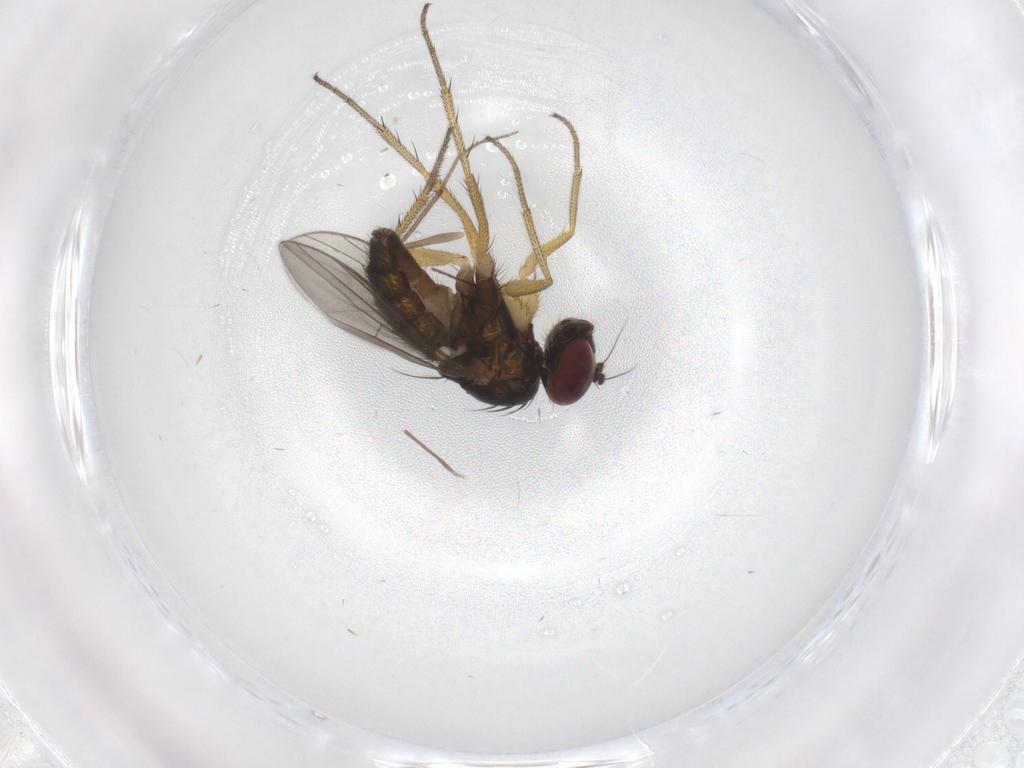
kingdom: Animalia
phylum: Arthropoda
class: Insecta
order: Diptera
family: Chironomidae
